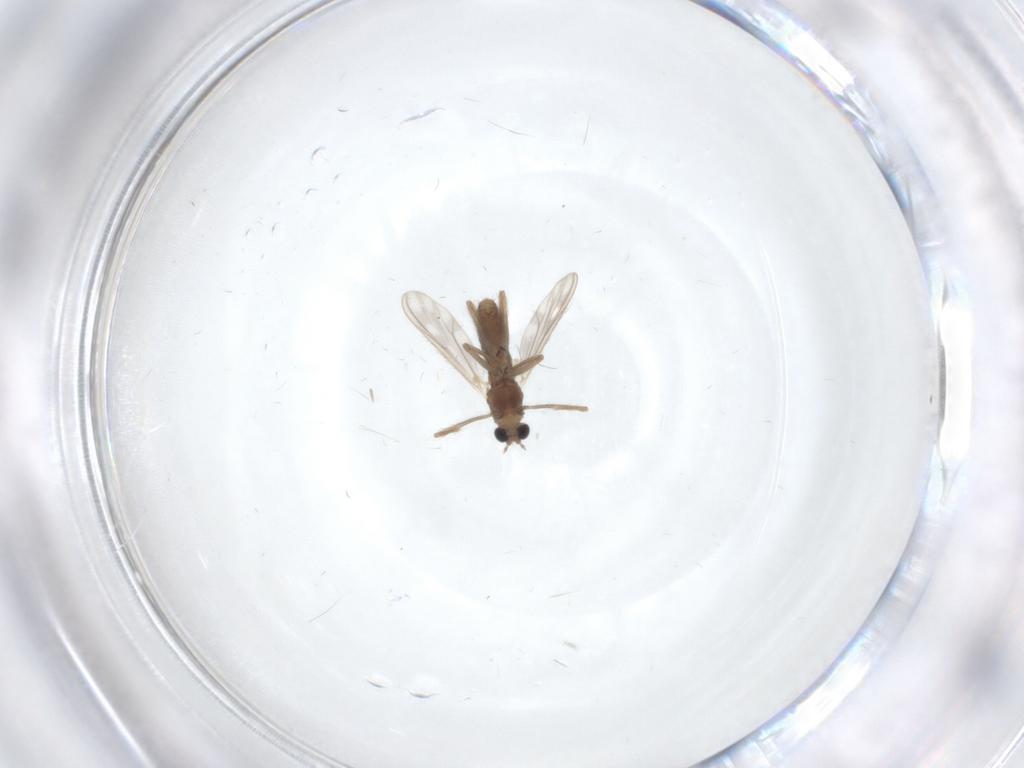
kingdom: Animalia
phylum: Arthropoda
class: Insecta
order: Diptera
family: Chironomidae
